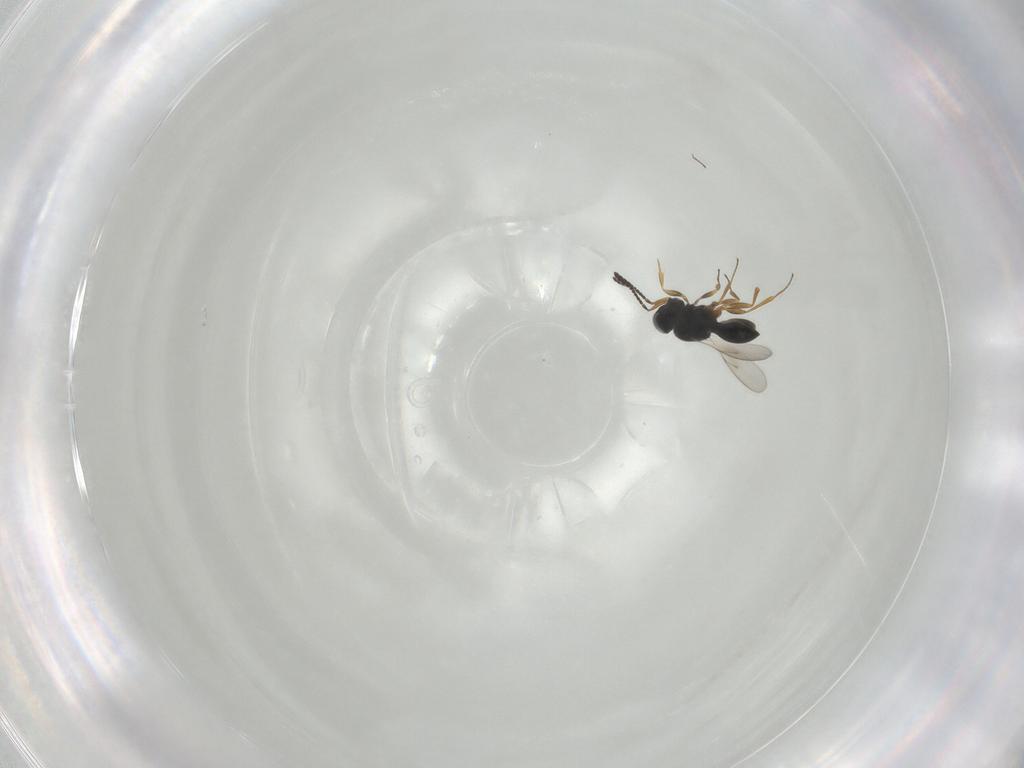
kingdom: Animalia
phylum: Arthropoda
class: Insecta
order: Hymenoptera
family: Scelionidae
